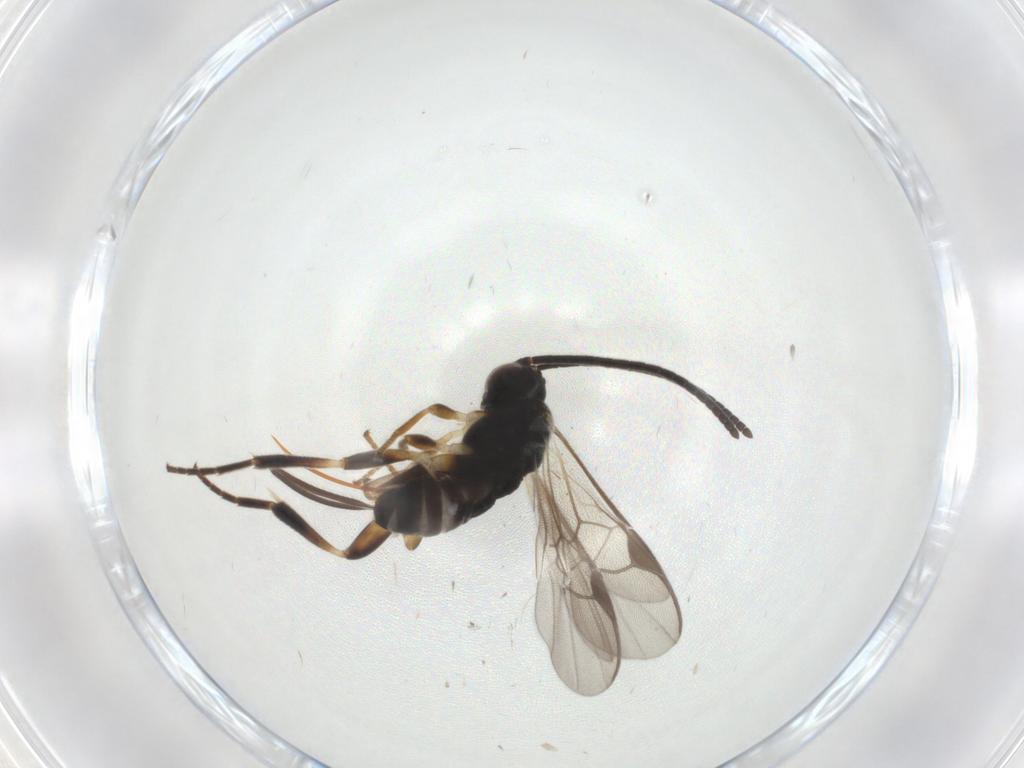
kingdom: Animalia
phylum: Arthropoda
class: Insecta
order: Hymenoptera
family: Braconidae
